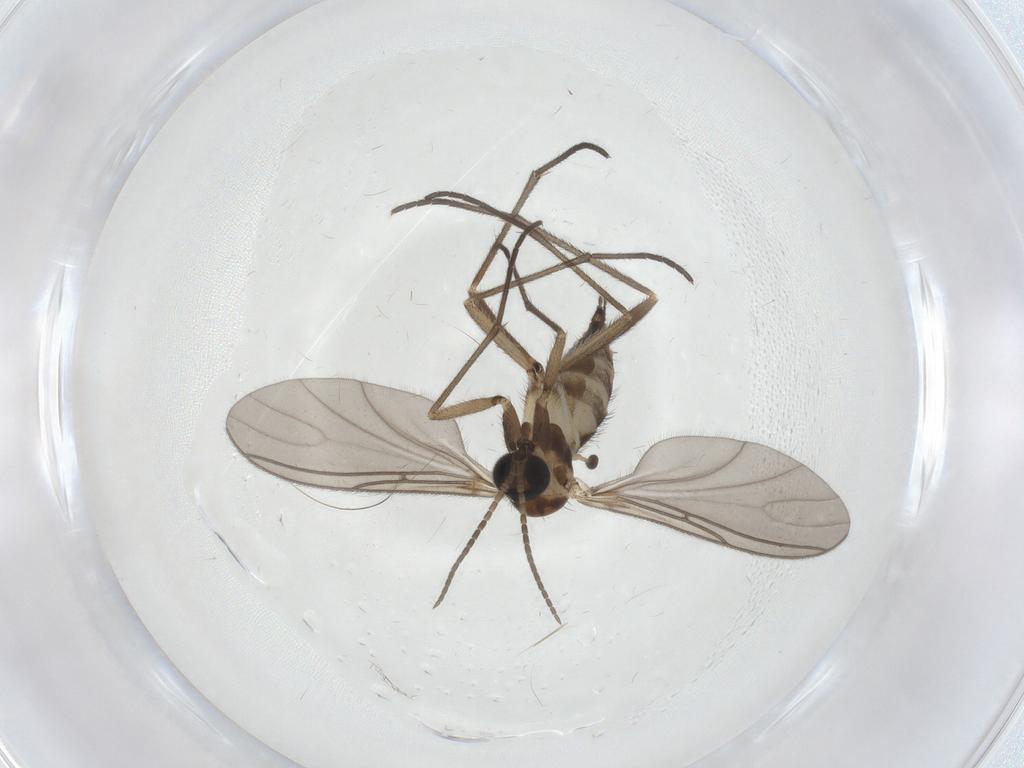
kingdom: Animalia
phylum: Arthropoda
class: Insecta
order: Diptera
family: Sciaridae
